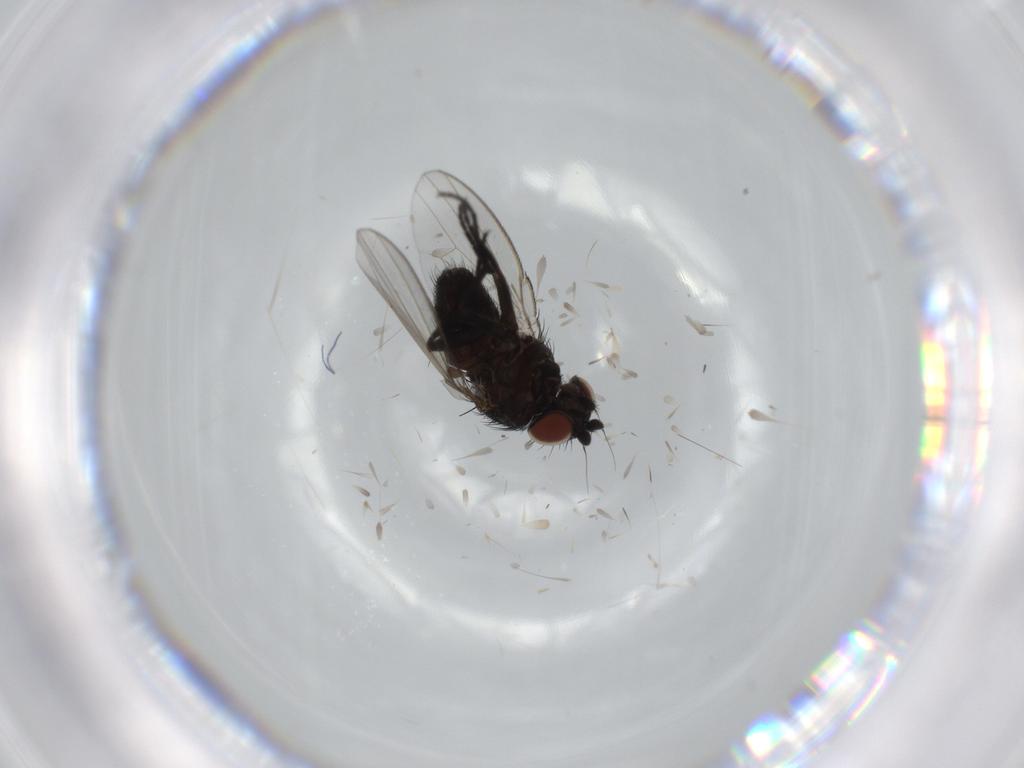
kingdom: Animalia
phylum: Arthropoda
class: Insecta
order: Diptera
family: Milichiidae
